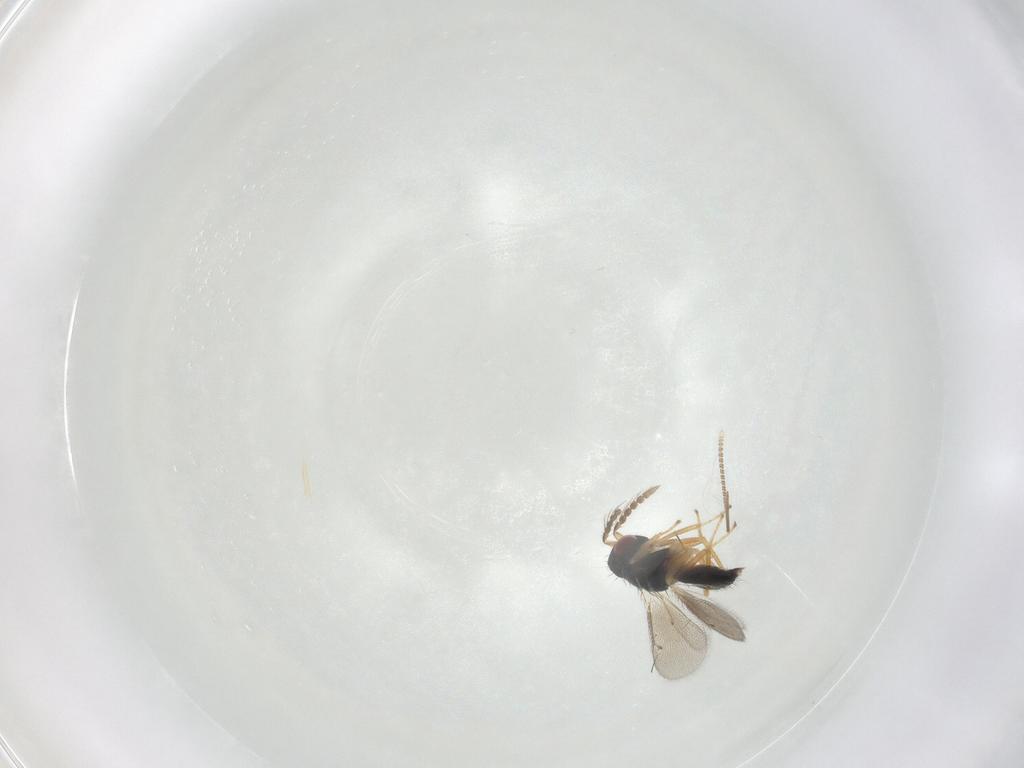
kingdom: Animalia
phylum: Arthropoda
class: Insecta
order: Hymenoptera
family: Eulophidae
